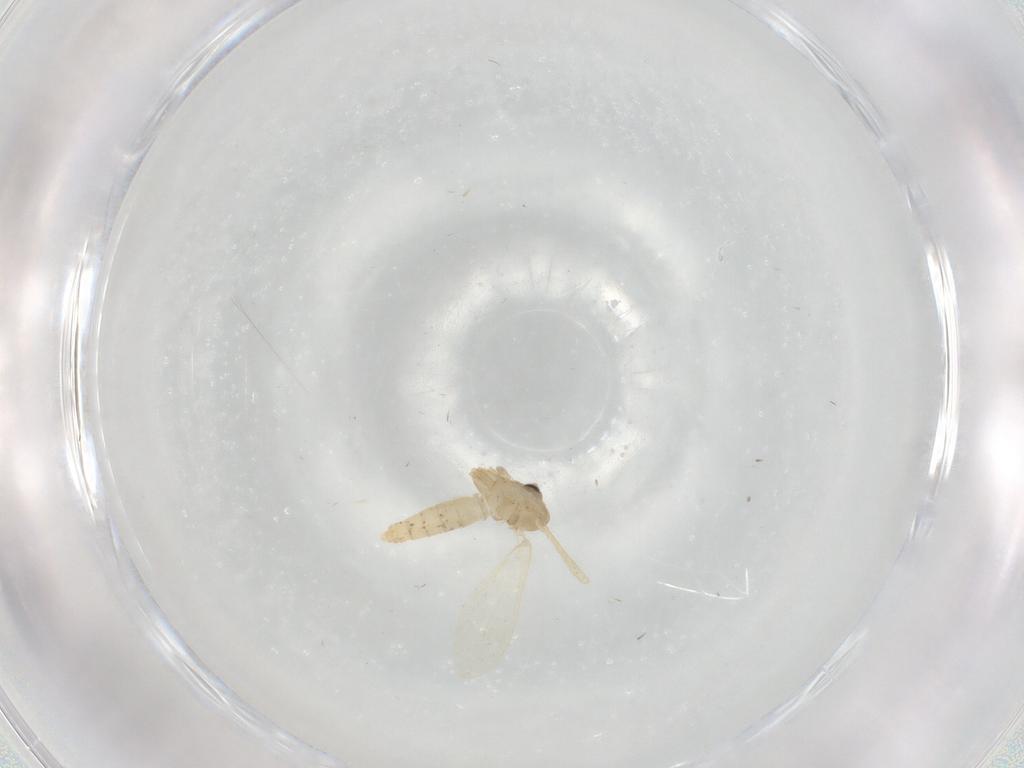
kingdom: Animalia
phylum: Arthropoda
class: Insecta
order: Diptera
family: Psychodidae
